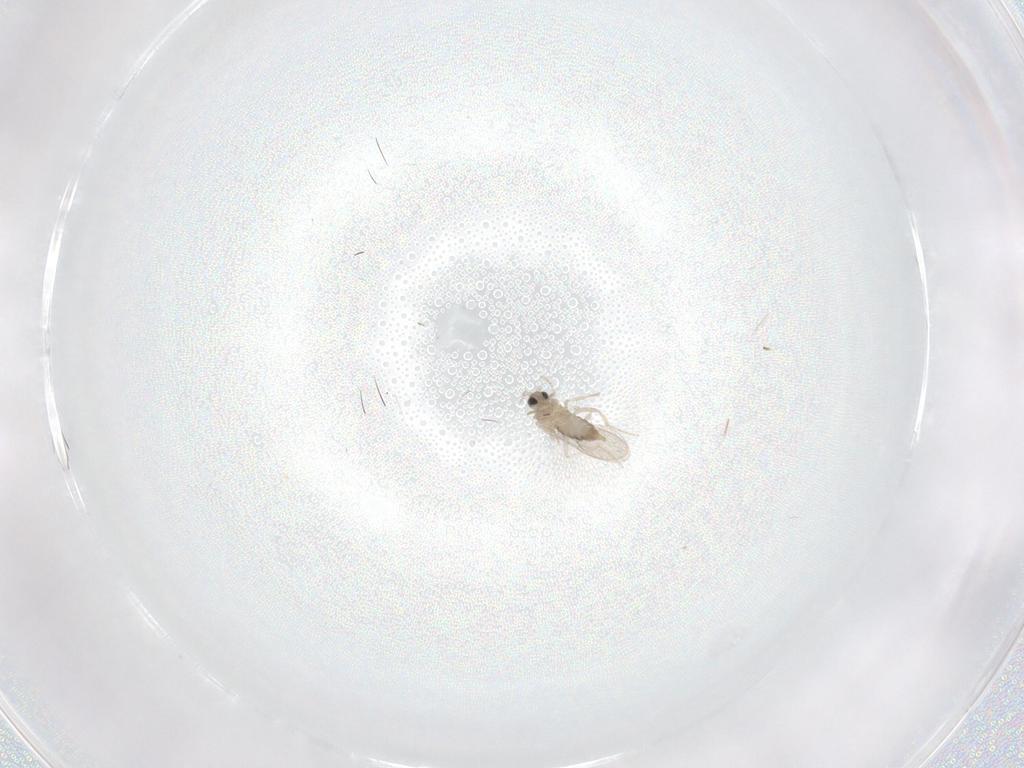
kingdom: Animalia
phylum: Arthropoda
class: Insecta
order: Diptera
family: Ceratopogonidae
